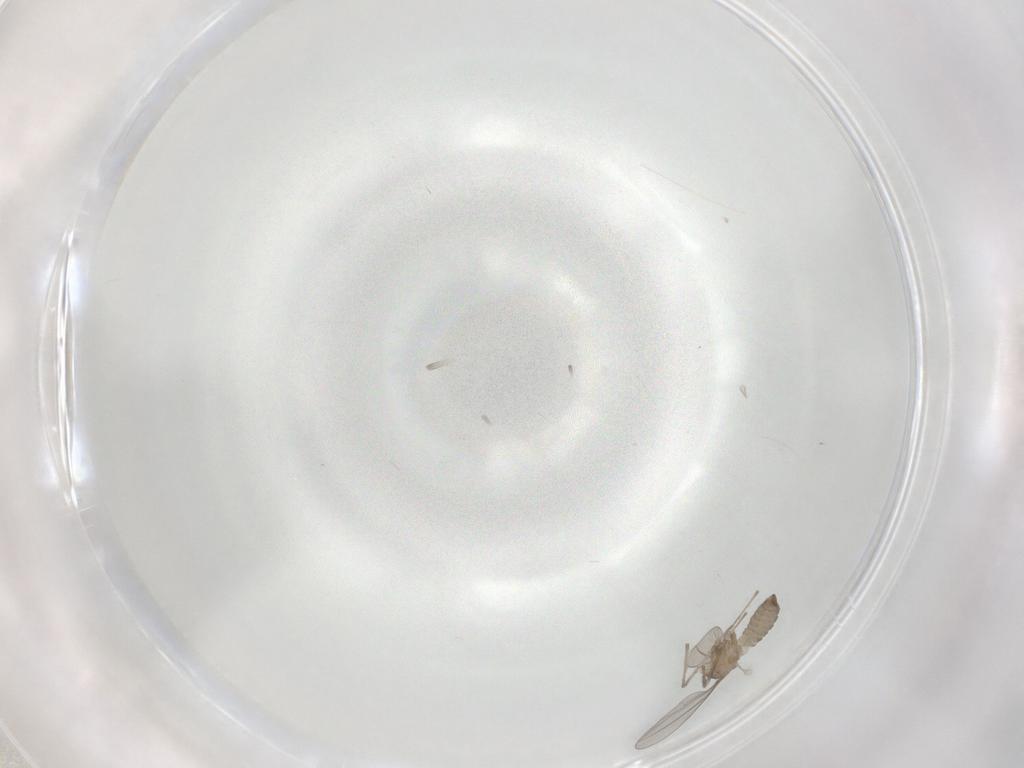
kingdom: Animalia
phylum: Arthropoda
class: Insecta
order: Diptera
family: Cecidomyiidae
